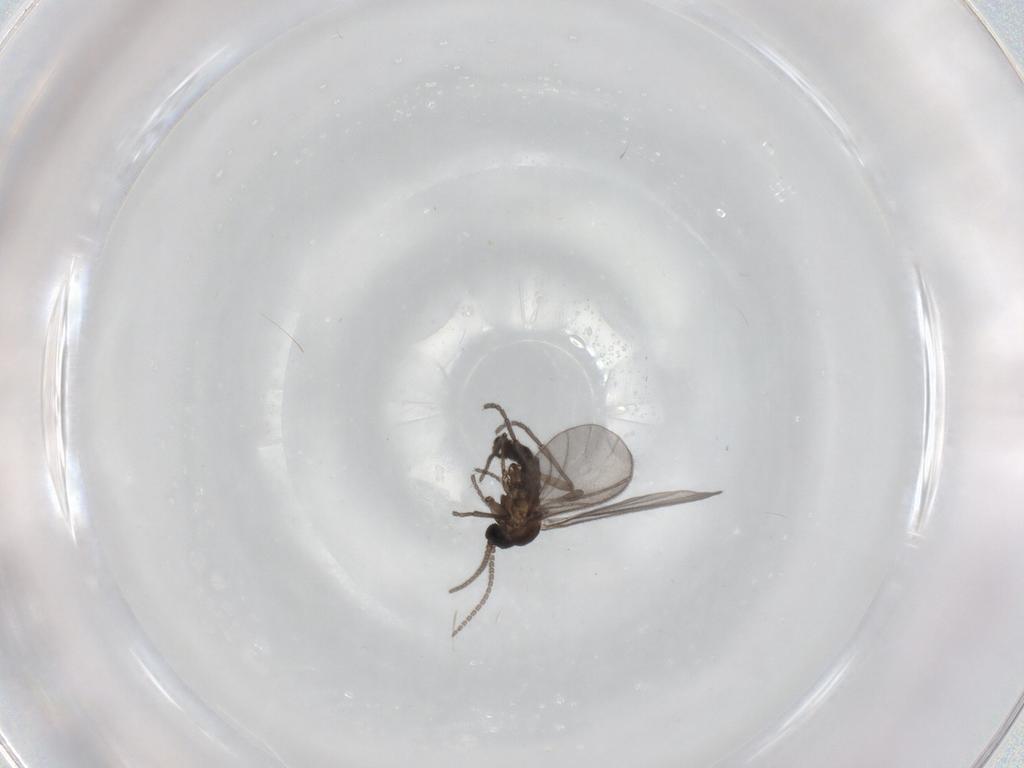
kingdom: Animalia
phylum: Arthropoda
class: Insecta
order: Diptera
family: Sciaridae
